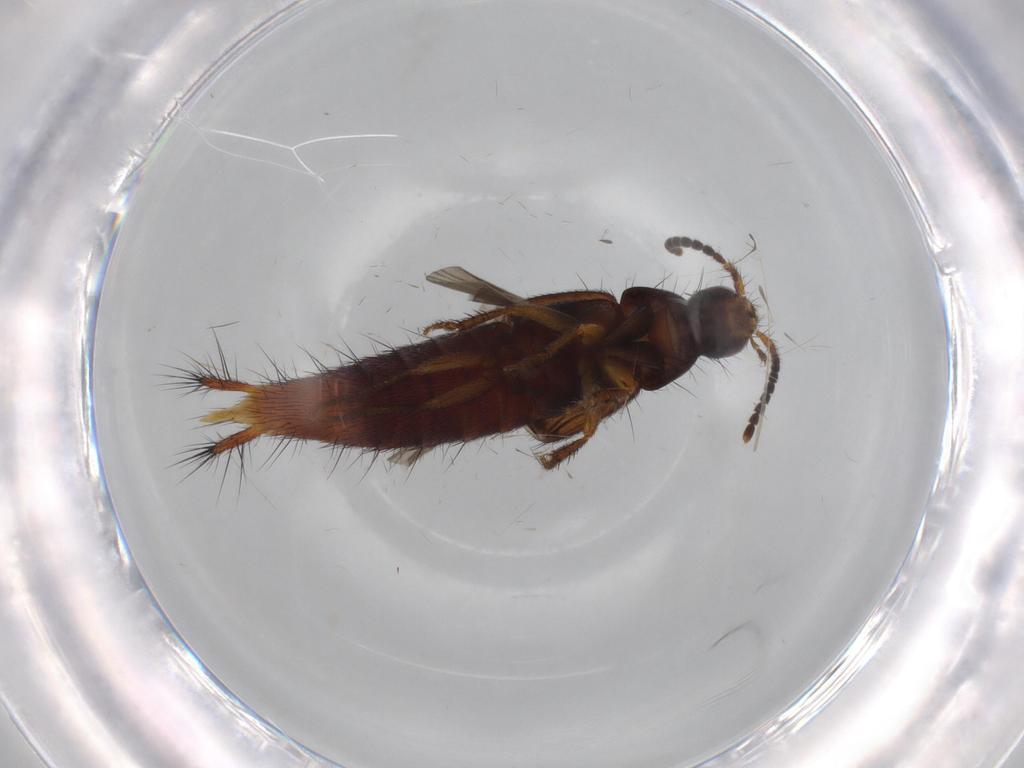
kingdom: Animalia
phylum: Arthropoda
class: Insecta
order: Coleoptera
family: Staphylinidae
